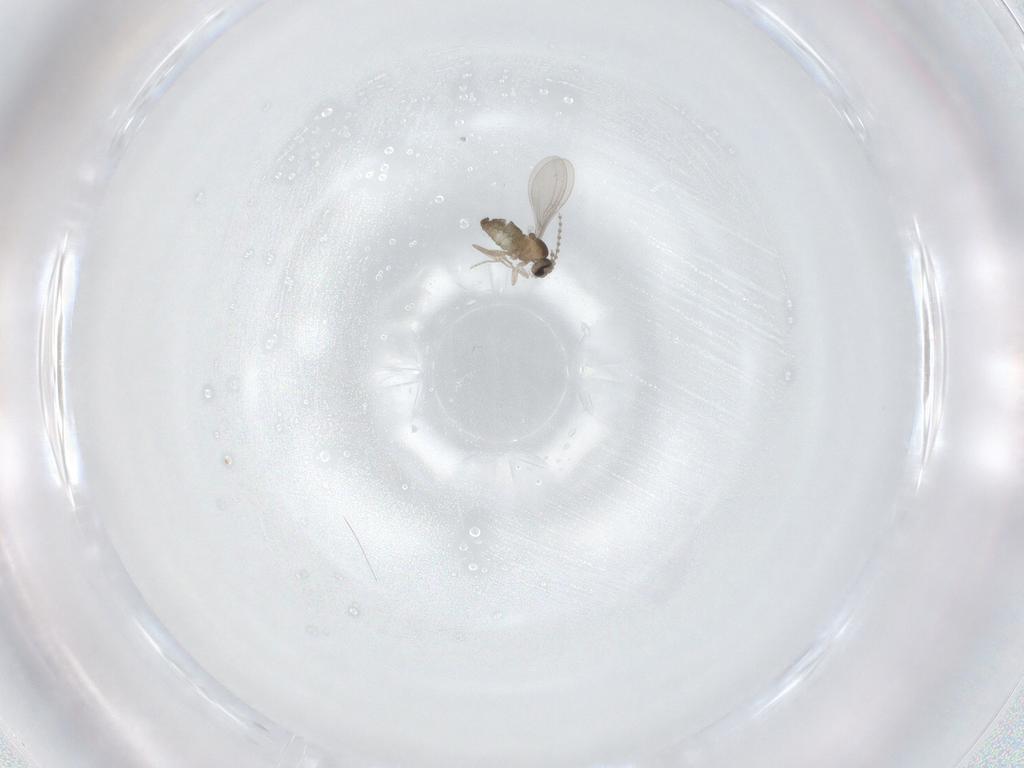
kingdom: Animalia
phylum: Arthropoda
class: Insecta
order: Diptera
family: Cecidomyiidae
